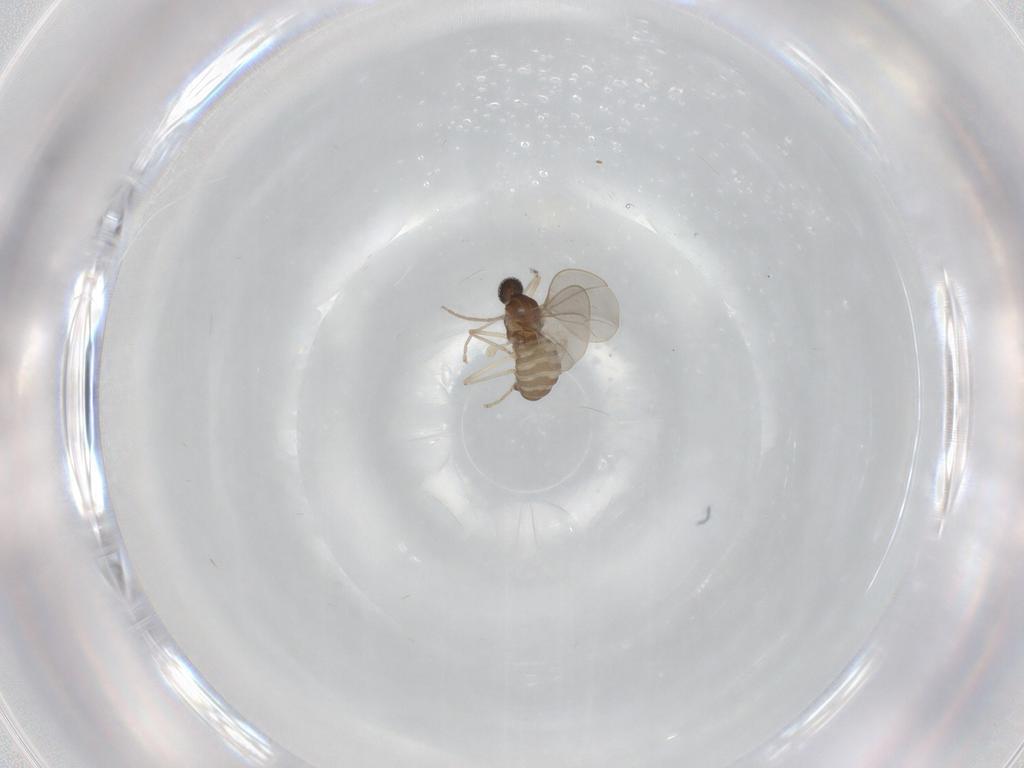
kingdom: Animalia
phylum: Arthropoda
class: Insecta
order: Diptera
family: Cecidomyiidae
